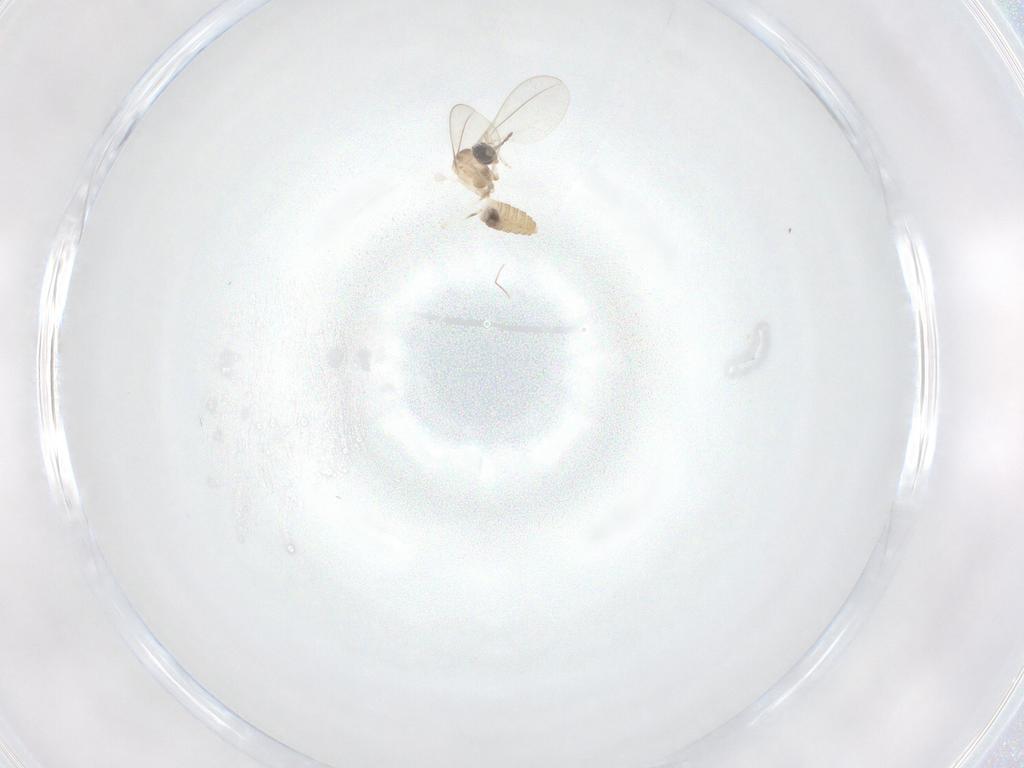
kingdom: Animalia
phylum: Arthropoda
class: Insecta
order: Diptera
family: Cecidomyiidae
